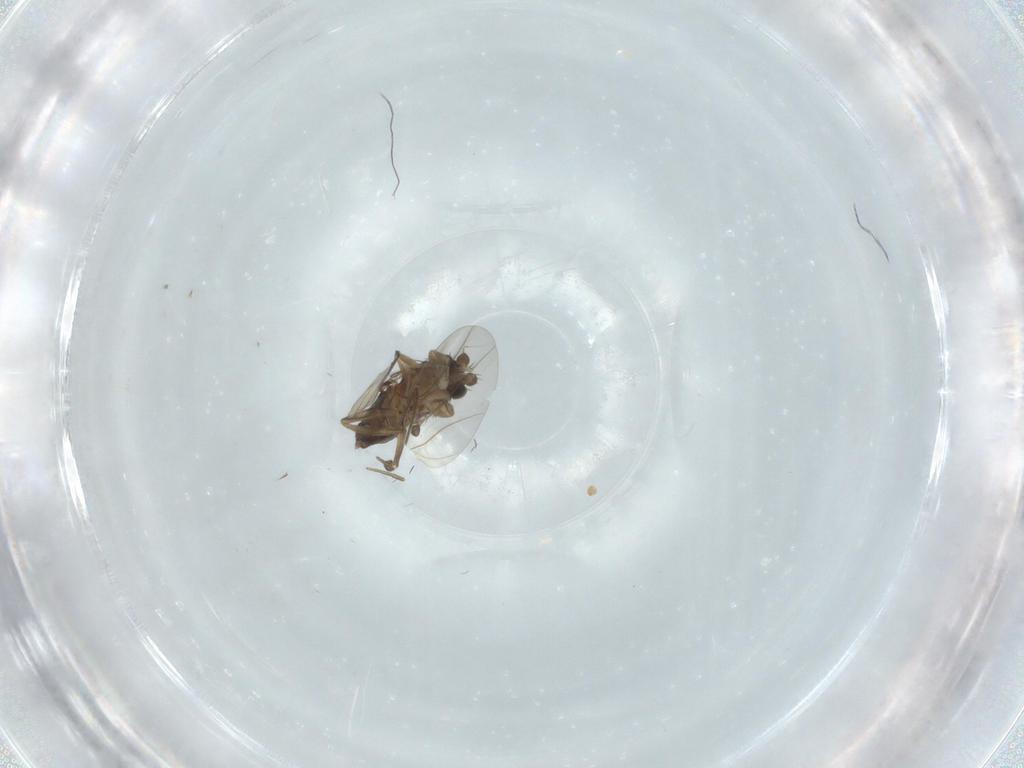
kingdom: Animalia
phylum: Arthropoda
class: Insecta
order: Diptera
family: Phoridae
